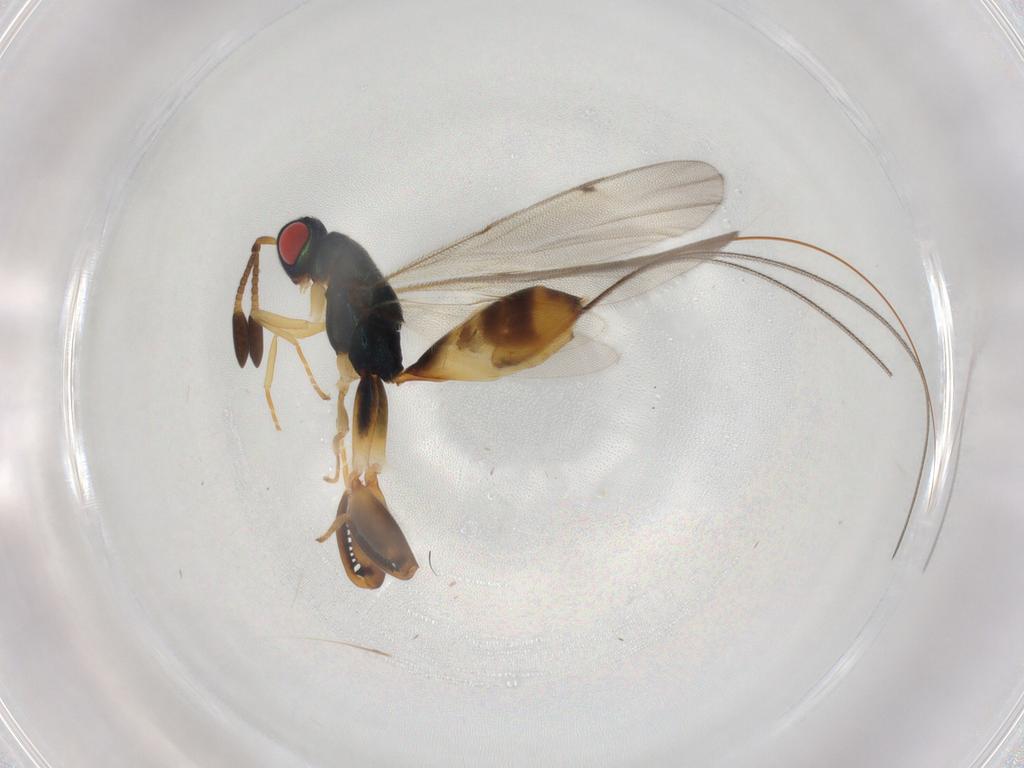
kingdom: Animalia
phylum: Arthropoda
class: Insecta
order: Hymenoptera
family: Torymidae
